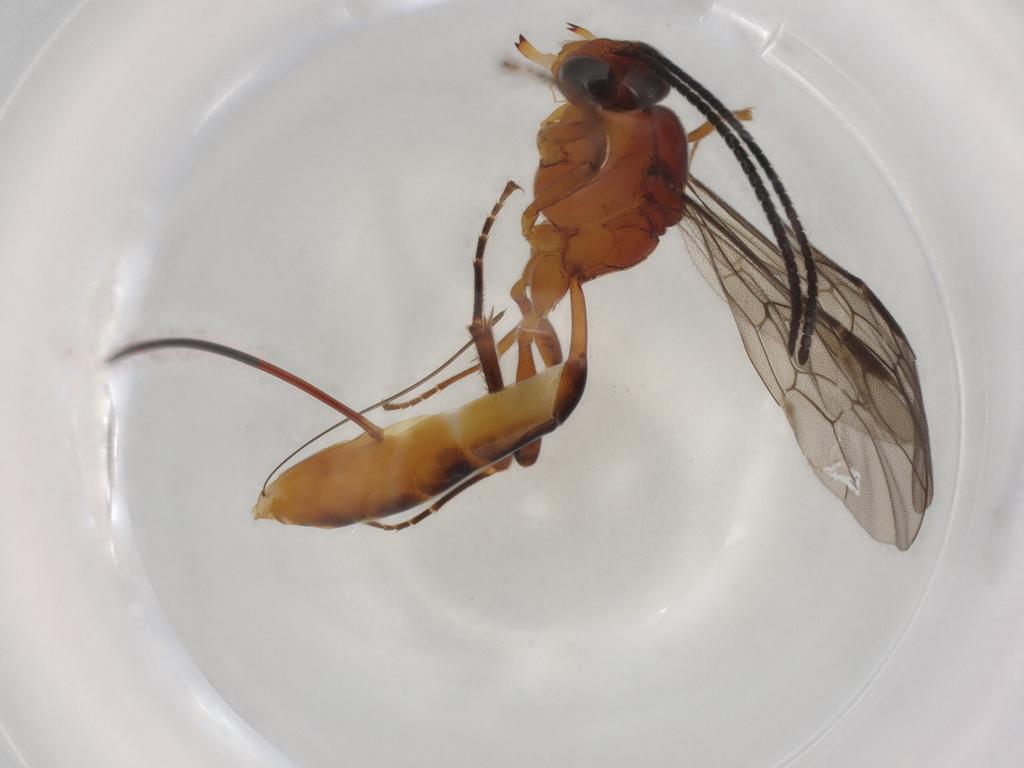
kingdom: Animalia
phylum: Arthropoda
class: Insecta
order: Hymenoptera
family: Ichneumonidae
